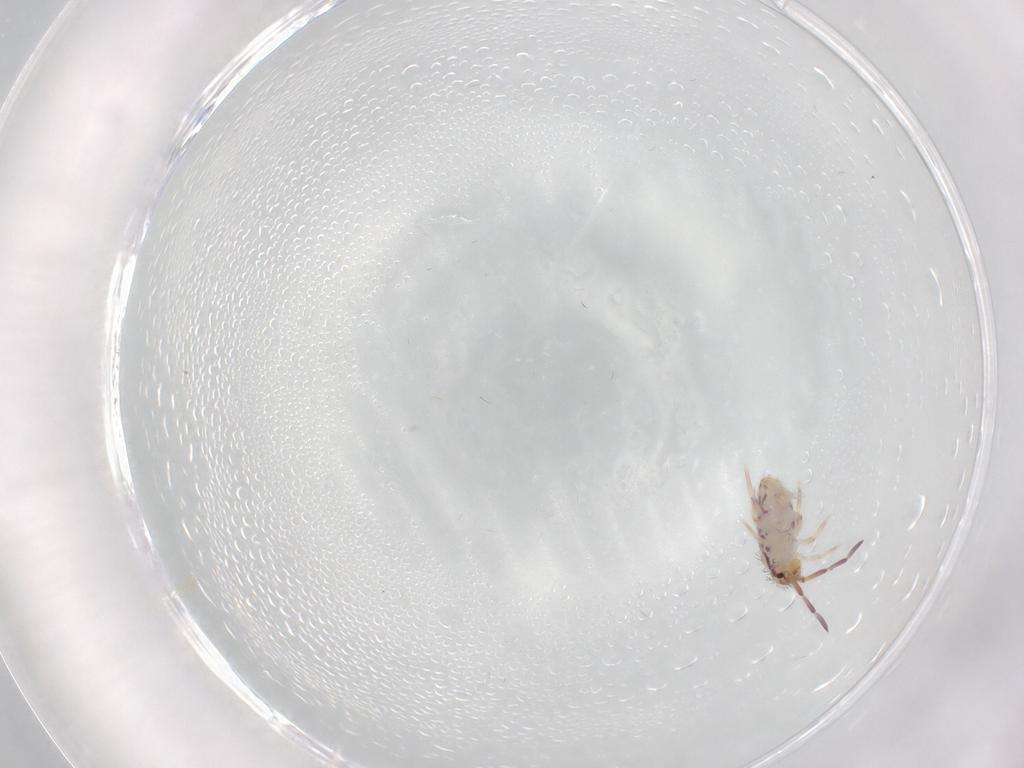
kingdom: Animalia
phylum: Arthropoda
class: Collembola
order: Entomobryomorpha
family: Entomobryidae
